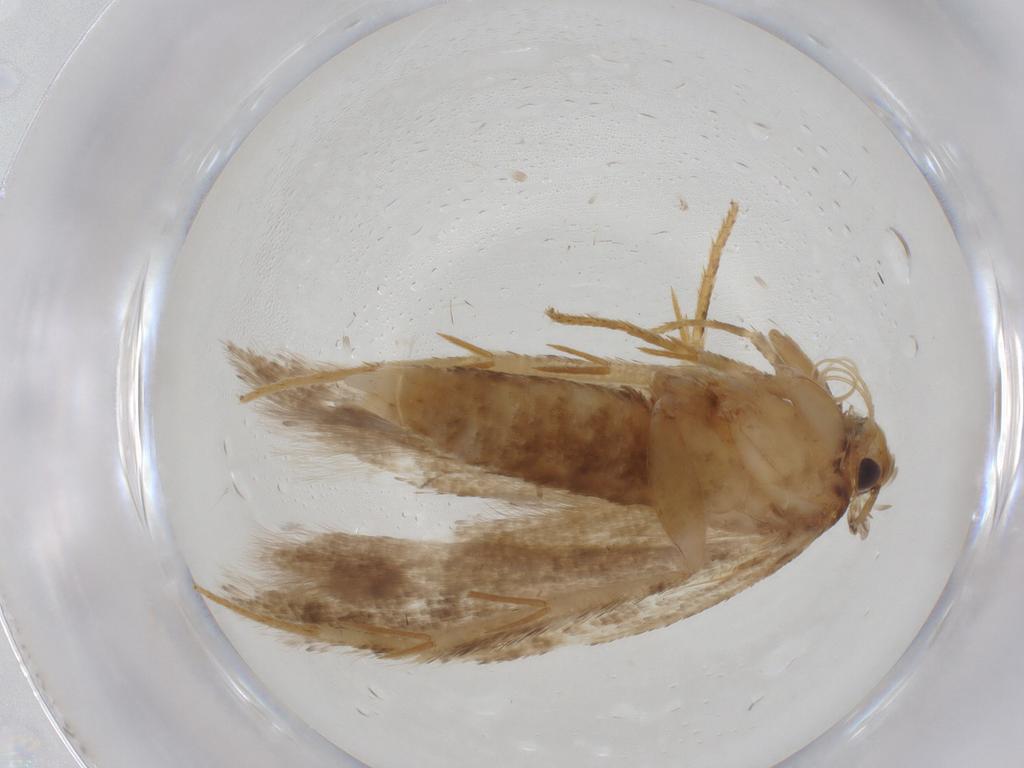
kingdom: Animalia
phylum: Arthropoda
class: Insecta
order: Lepidoptera
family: Gelechiidae
